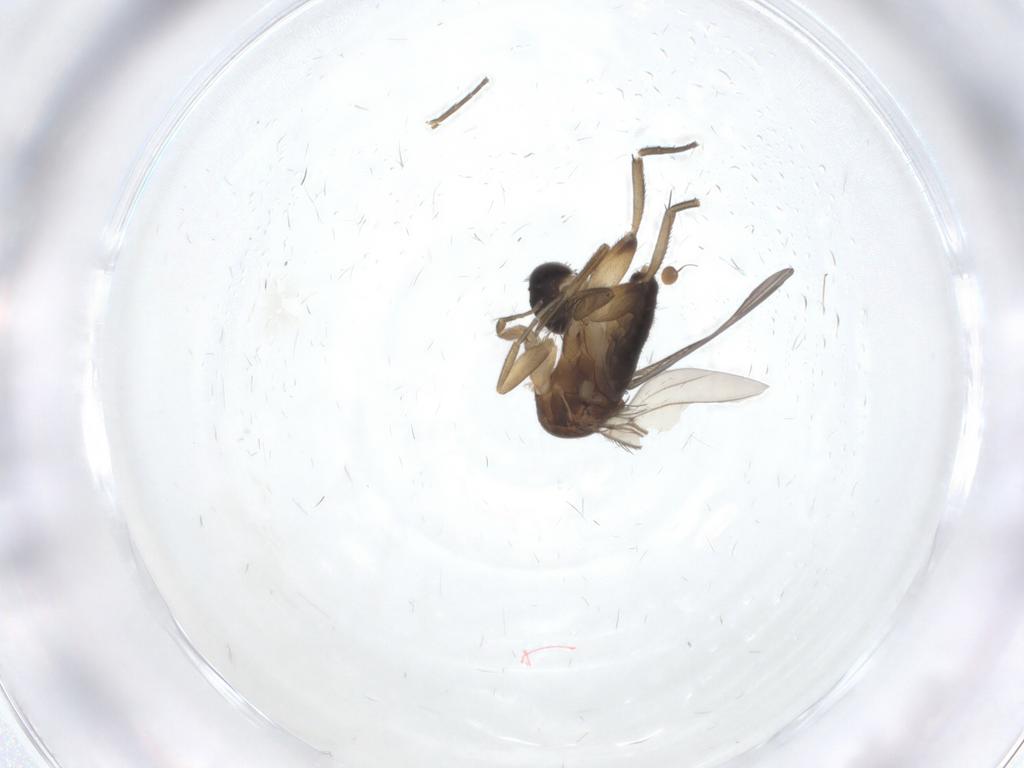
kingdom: Animalia
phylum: Arthropoda
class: Insecta
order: Diptera
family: Phoridae
